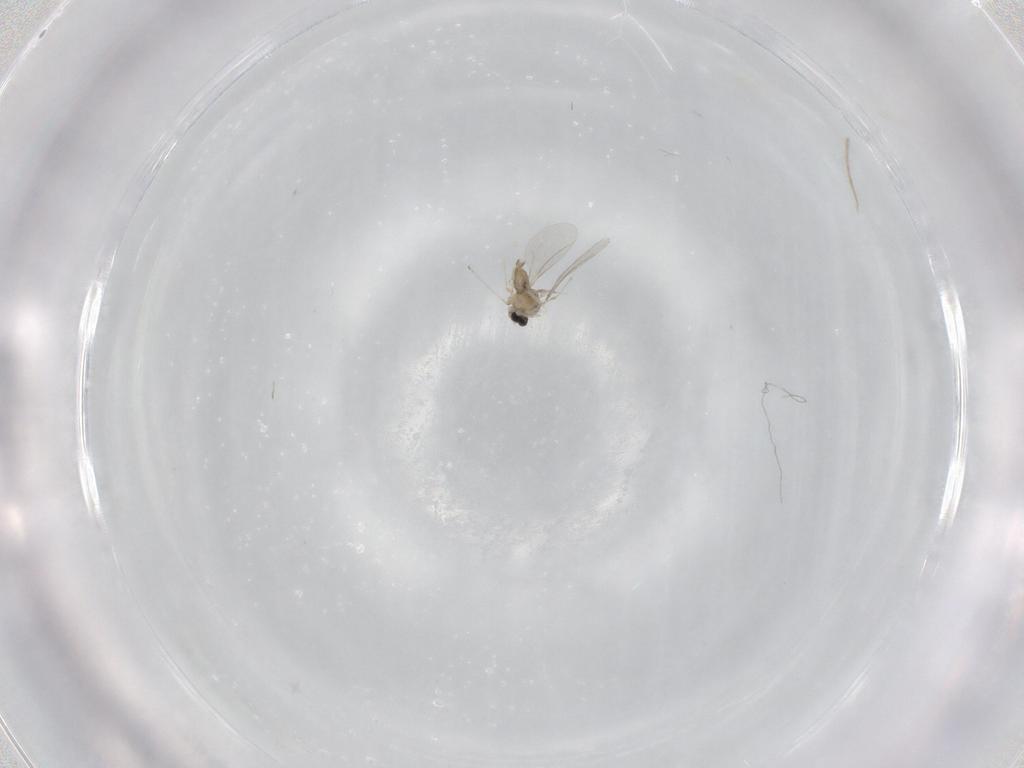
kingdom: Animalia
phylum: Arthropoda
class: Insecta
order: Diptera
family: Cecidomyiidae
